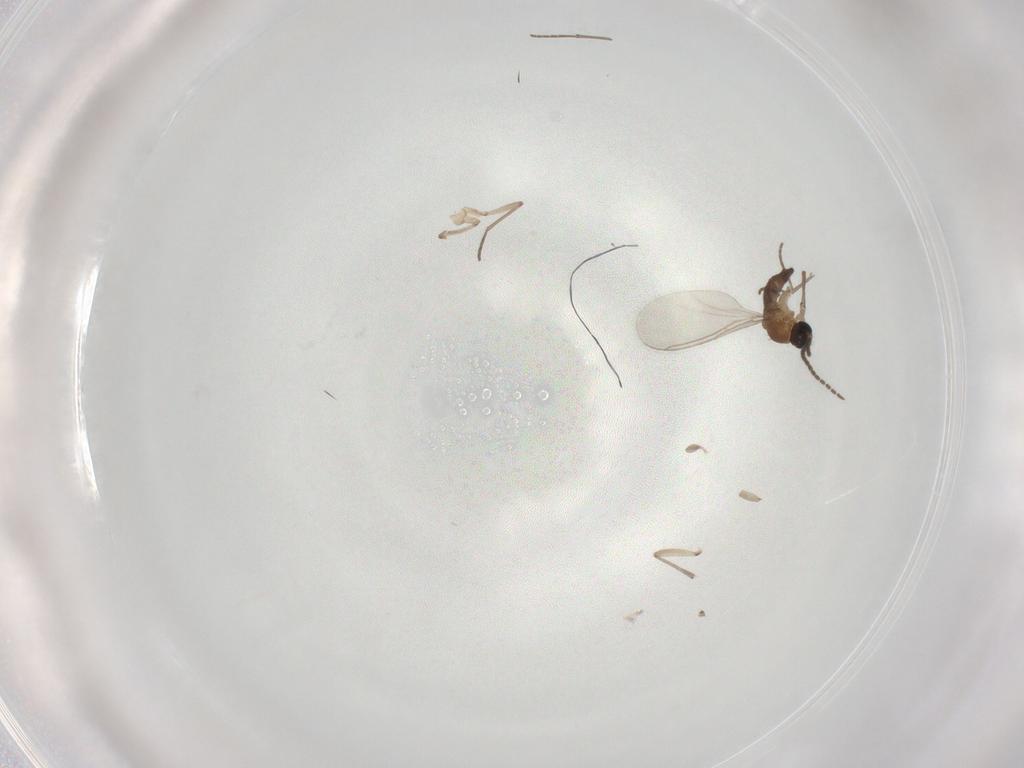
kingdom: Animalia
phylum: Arthropoda
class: Insecta
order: Diptera
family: Sciaridae
